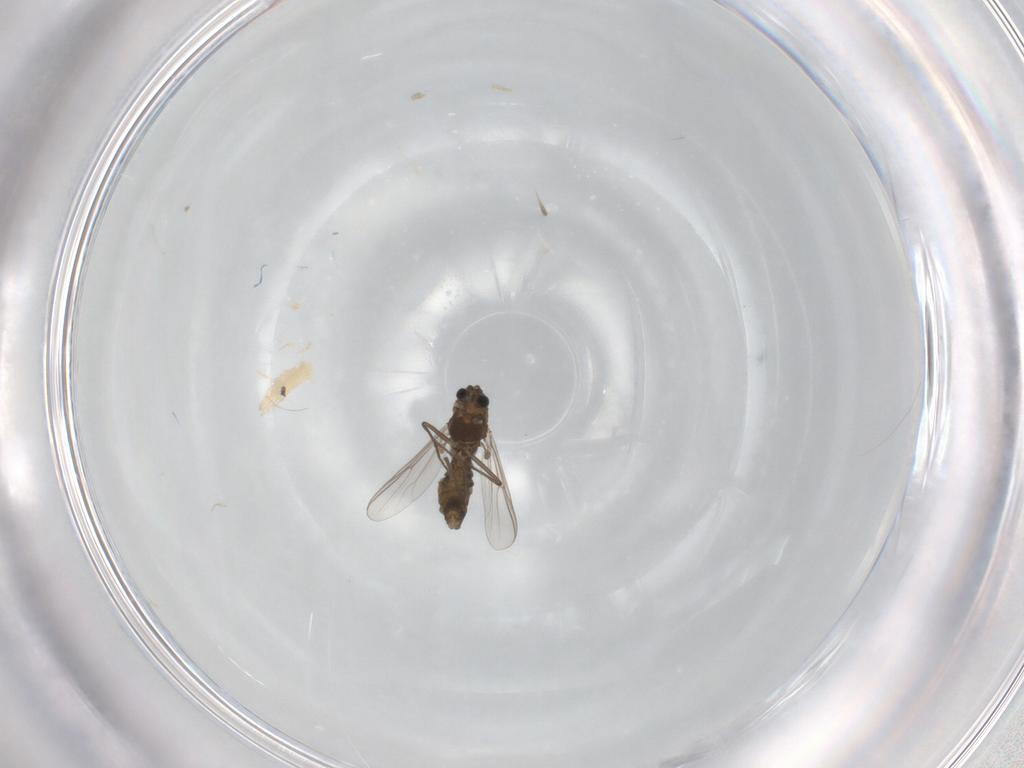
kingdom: Animalia
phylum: Arthropoda
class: Insecta
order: Diptera
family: Chironomidae
